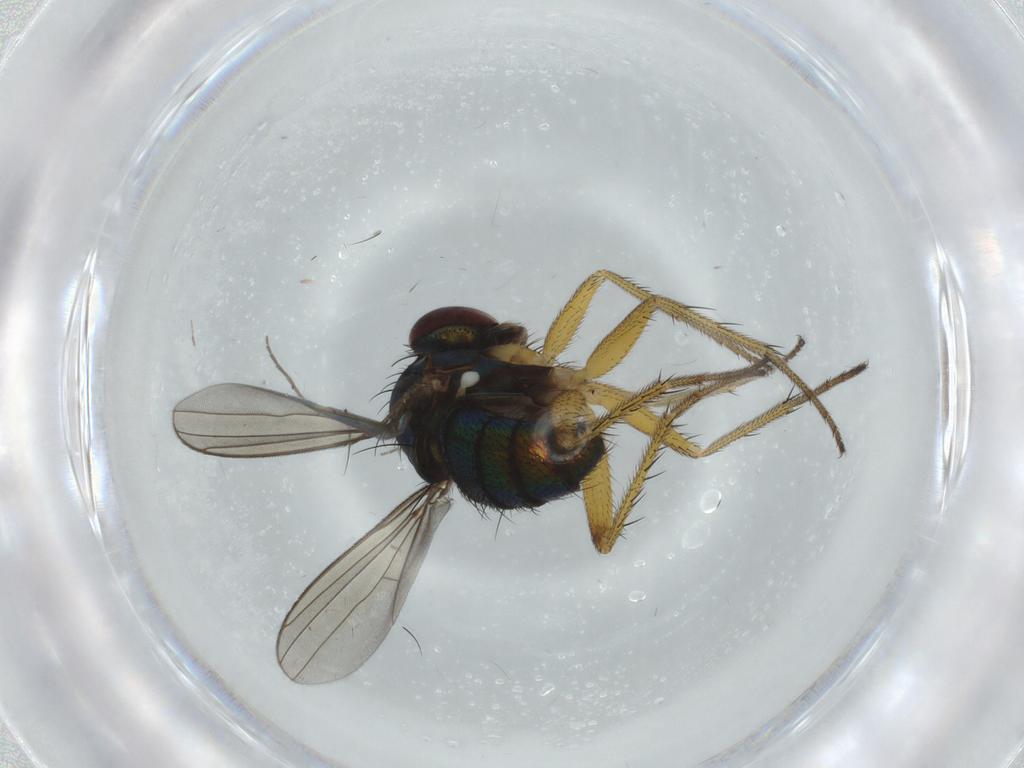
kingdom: Animalia
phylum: Arthropoda
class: Insecta
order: Diptera
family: Dolichopodidae
